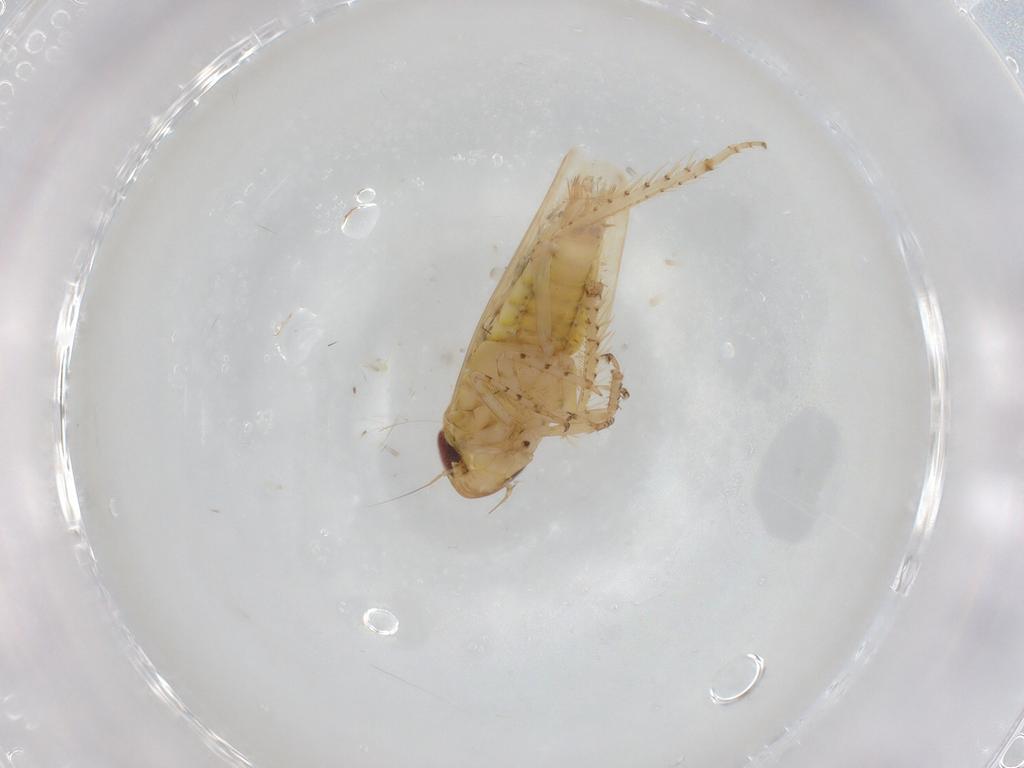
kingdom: Animalia
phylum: Arthropoda
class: Insecta
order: Hemiptera
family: Cicadellidae
